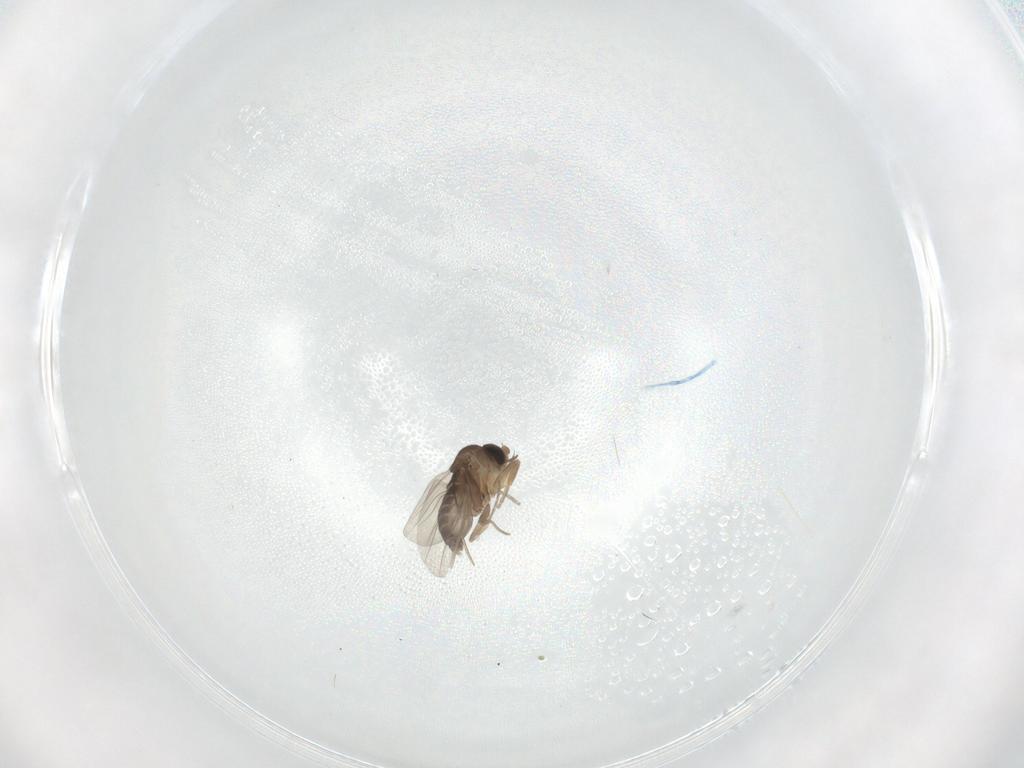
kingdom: Animalia
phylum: Arthropoda
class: Insecta
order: Diptera
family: Phoridae
